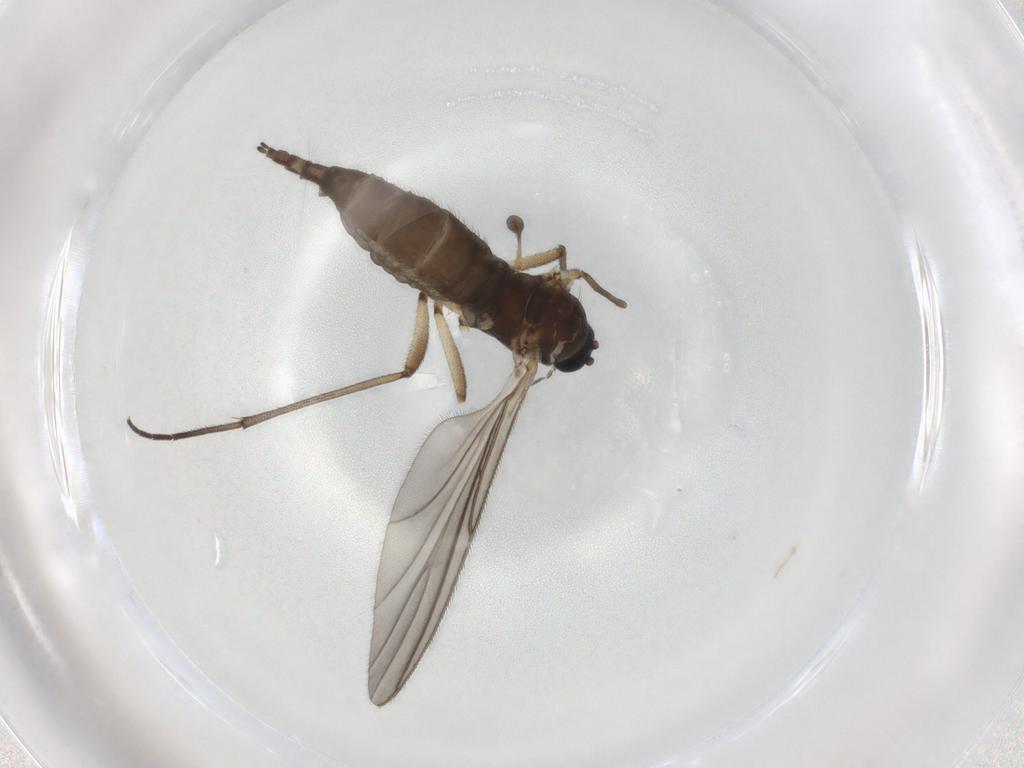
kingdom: Animalia
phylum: Arthropoda
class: Insecta
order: Diptera
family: Sciaridae
